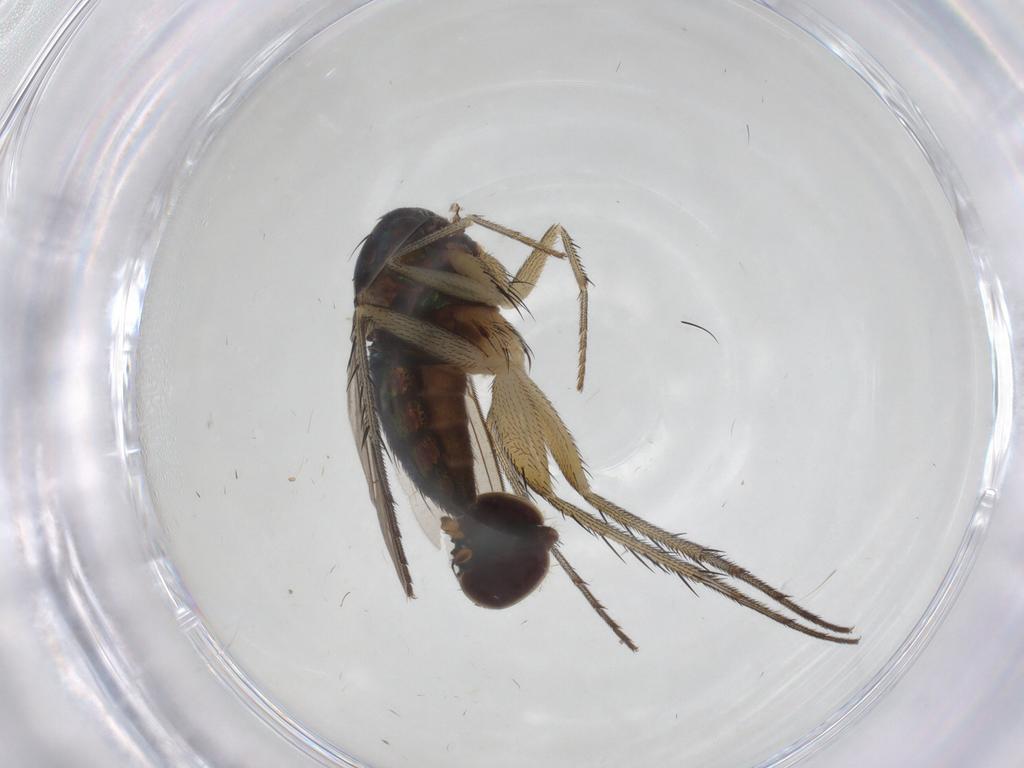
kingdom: Animalia
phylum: Arthropoda
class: Insecta
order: Diptera
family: Dolichopodidae
